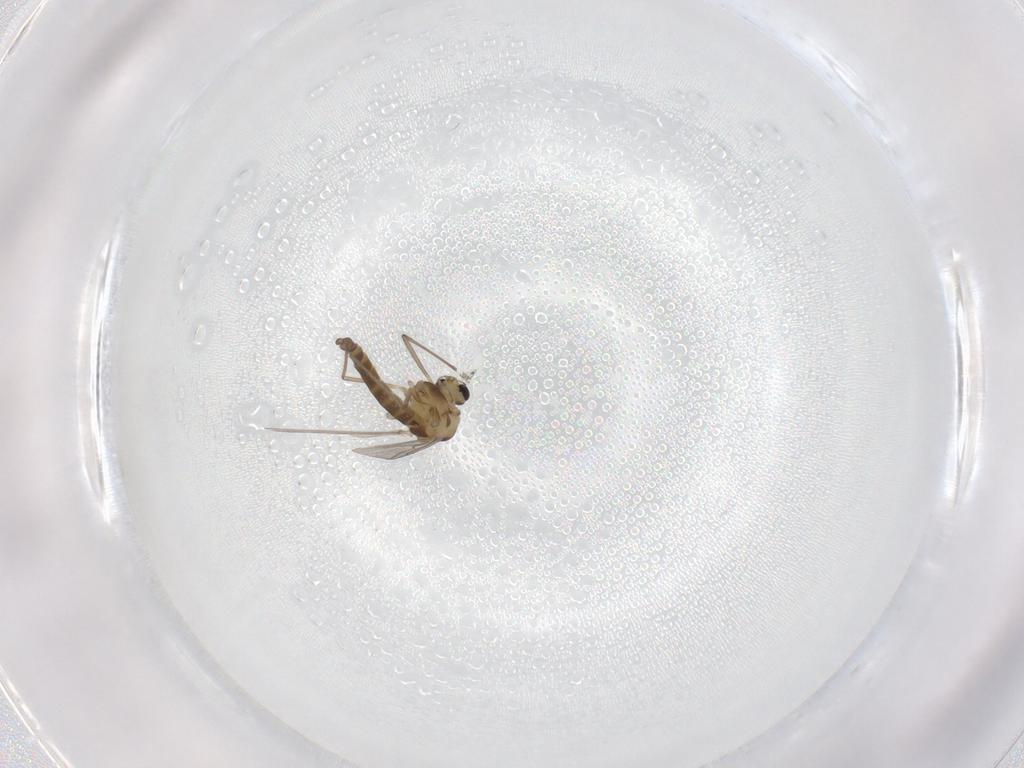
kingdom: Animalia
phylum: Arthropoda
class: Insecta
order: Diptera
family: Chironomidae
